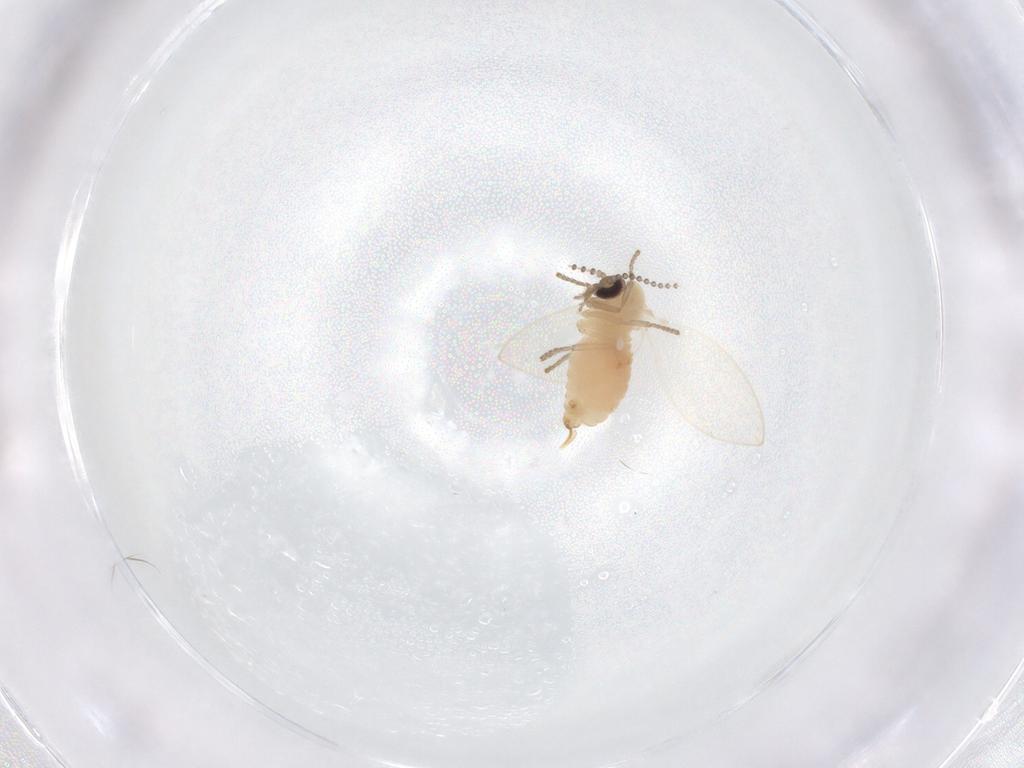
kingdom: Animalia
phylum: Arthropoda
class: Insecta
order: Diptera
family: Psychodidae
